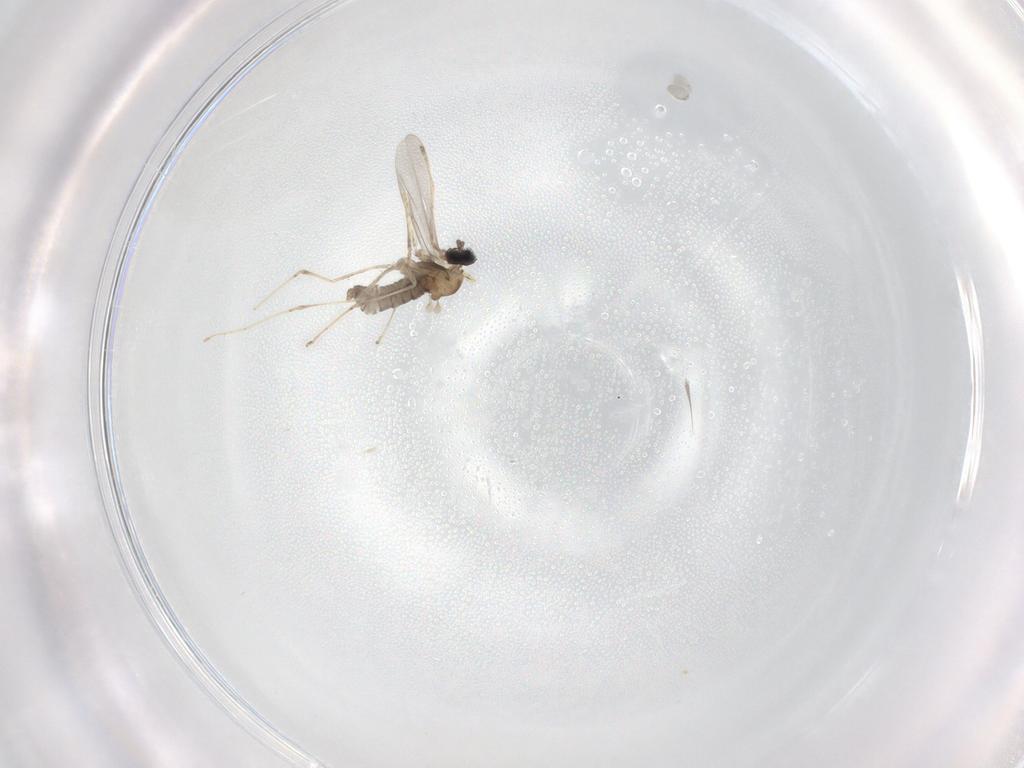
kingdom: Animalia
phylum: Arthropoda
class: Insecta
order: Diptera
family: Cecidomyiidae
